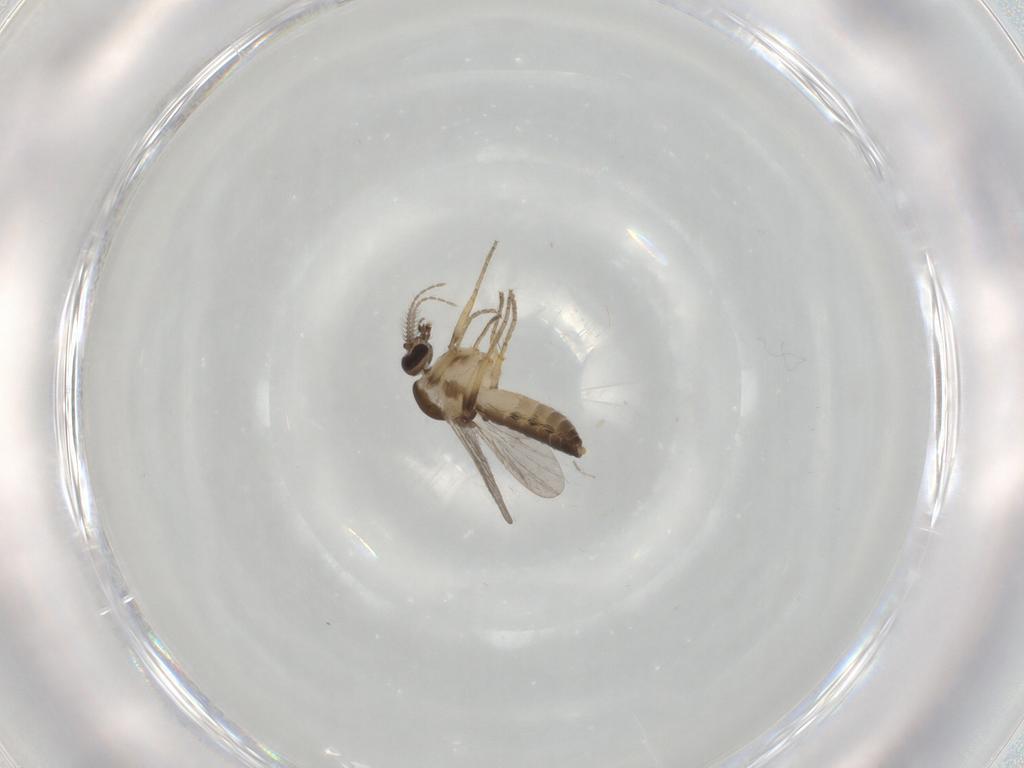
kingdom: Animalia
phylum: Arthropoda
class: Insecta
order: Diptera
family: Ceratopogonidae
